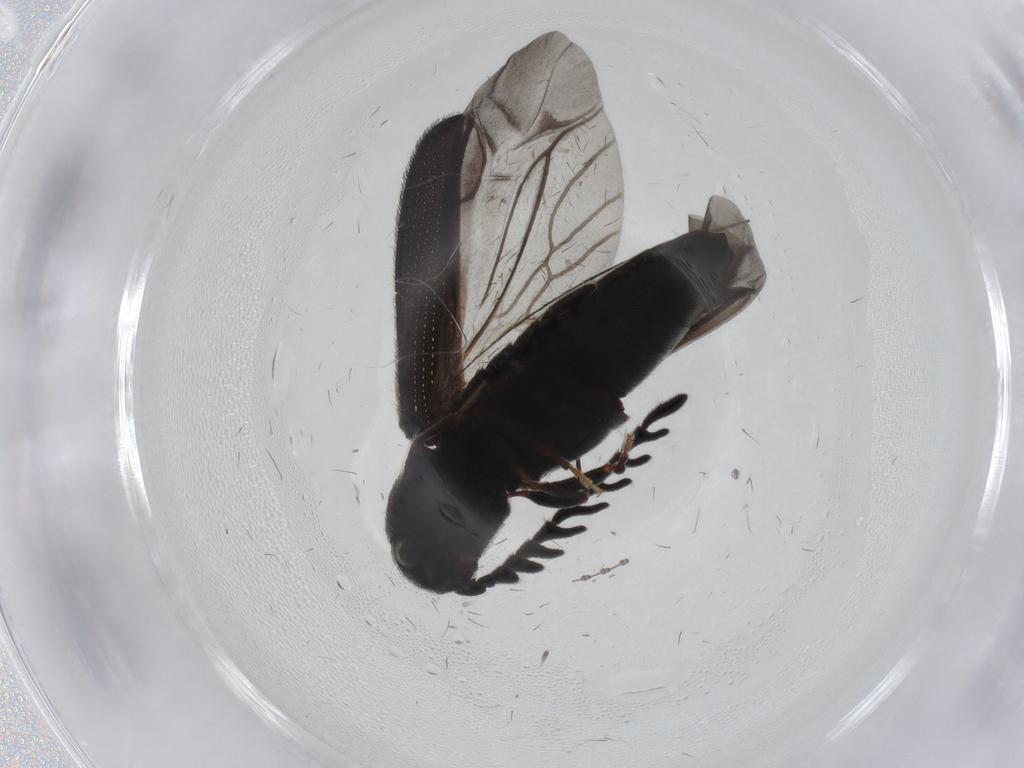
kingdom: Animalia
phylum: Arthropoda
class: Insecta
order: Coleoptera
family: Eucnemidae
